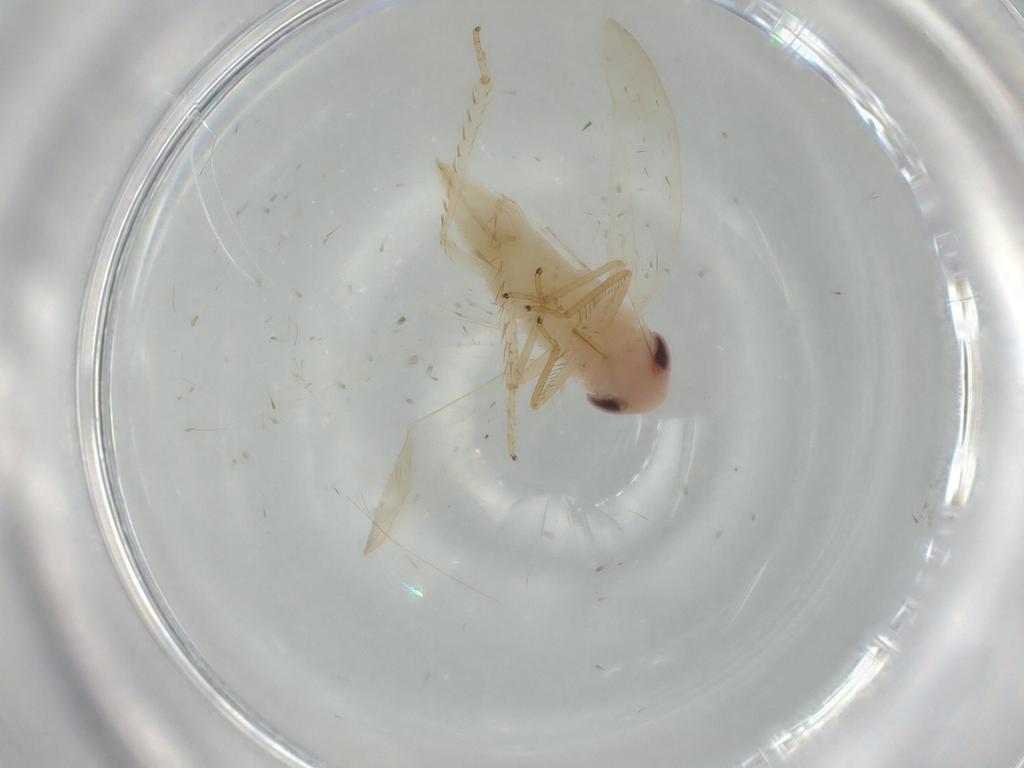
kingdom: Animalia
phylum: Arthropoda
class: Insecta
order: Hemiptera
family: Cicadellidae
